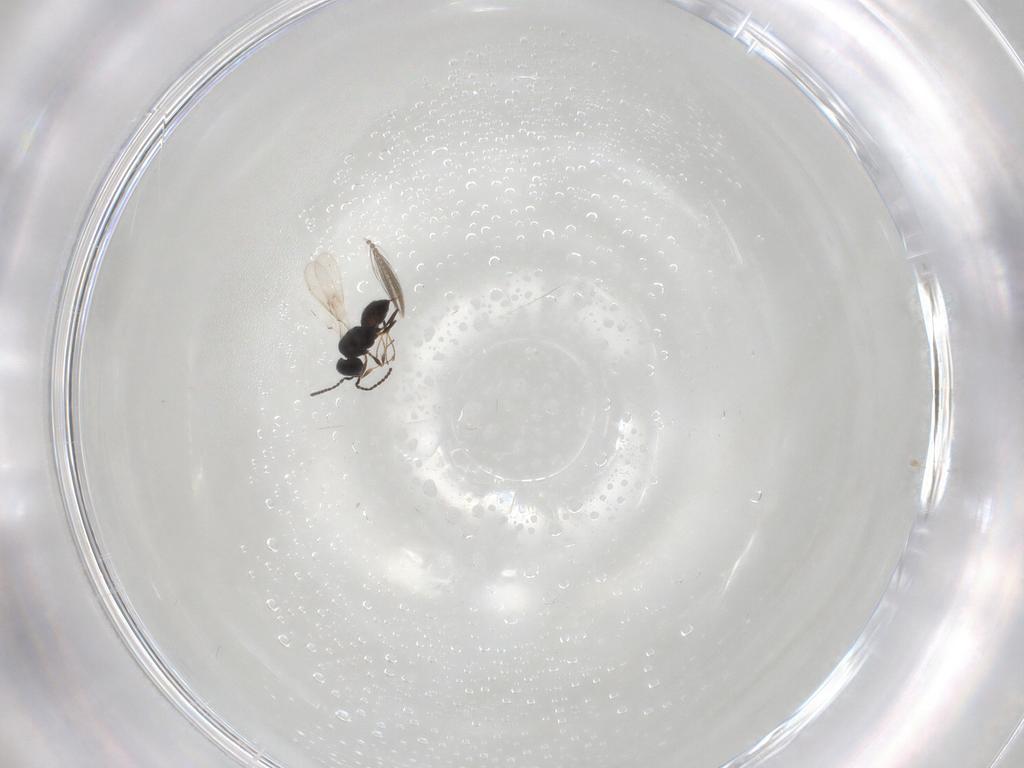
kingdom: Animalia
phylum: Arthropoda
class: Insecta
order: Hymenoptera
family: Scelionidae
